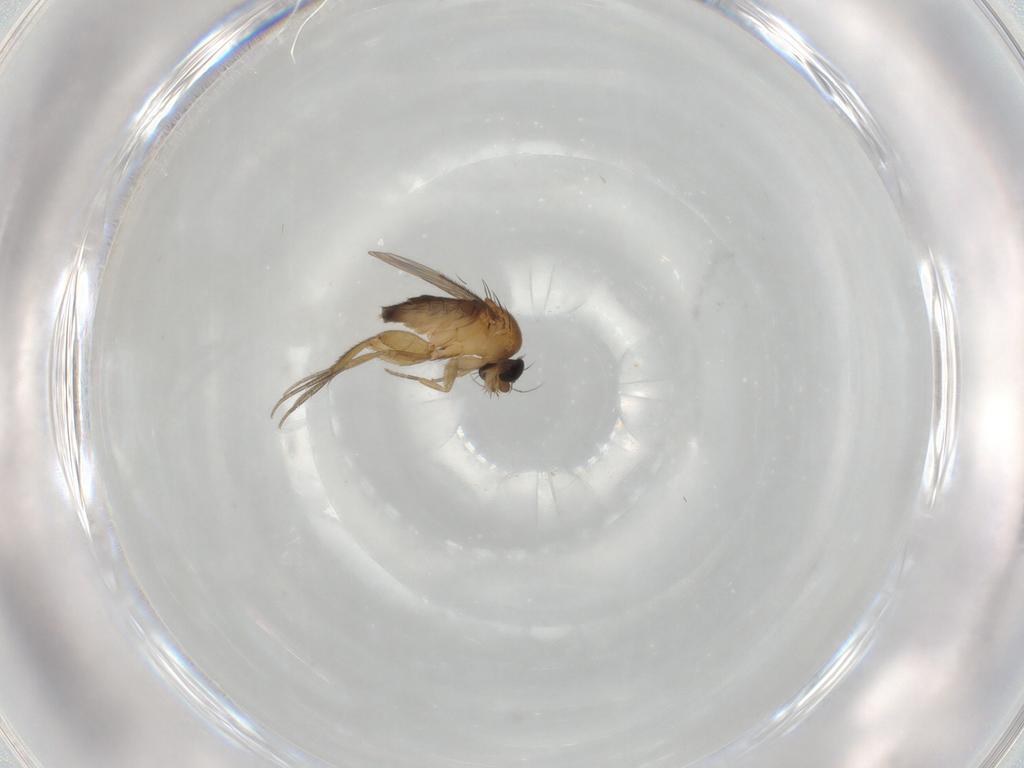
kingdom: Animalia
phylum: Arthropoda
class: Insecta
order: Diptera
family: Phoridae
